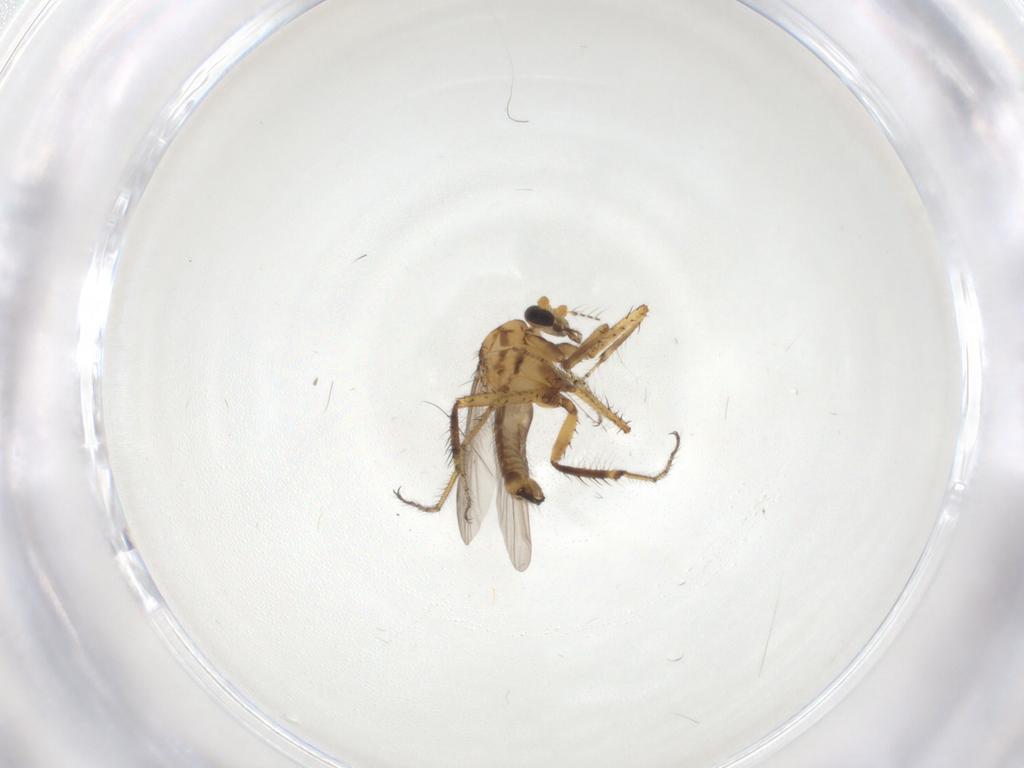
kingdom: Animalia
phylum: Arthropoda
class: Insecta
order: Diptera
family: Ceratopogonidae
